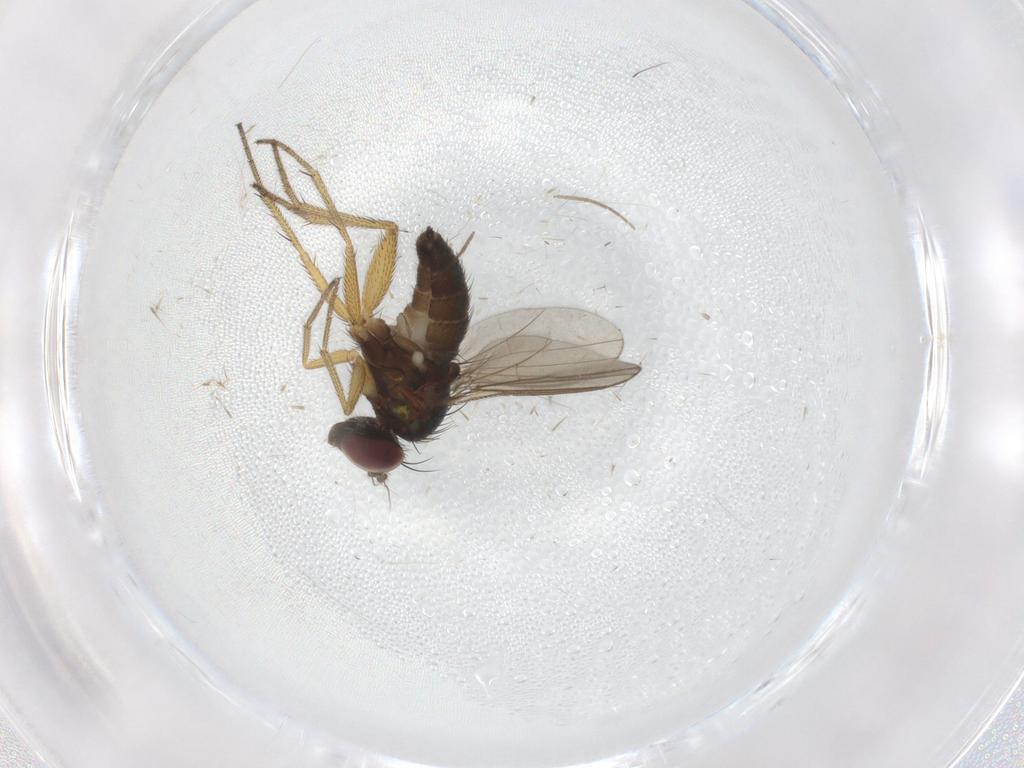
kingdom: Animalia
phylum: Arthropoda
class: Insecta
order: Diptera
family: Dolichopodidae
